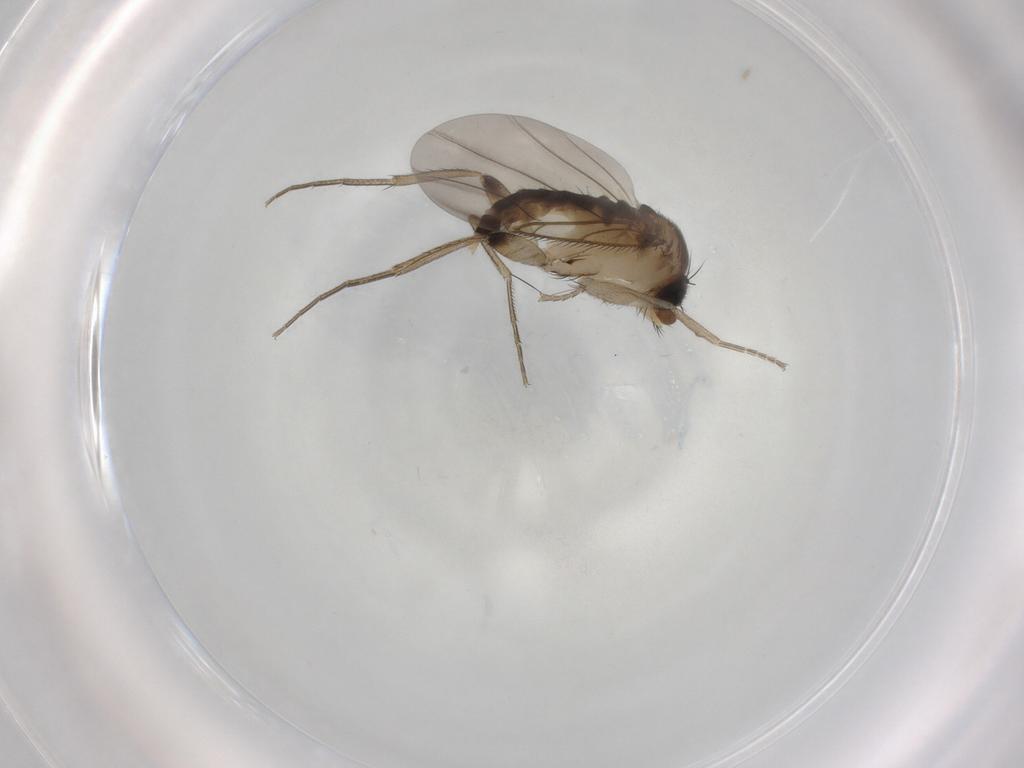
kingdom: Animalia
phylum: Arthropoda
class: Insecta
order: Diptera
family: Phoridae
